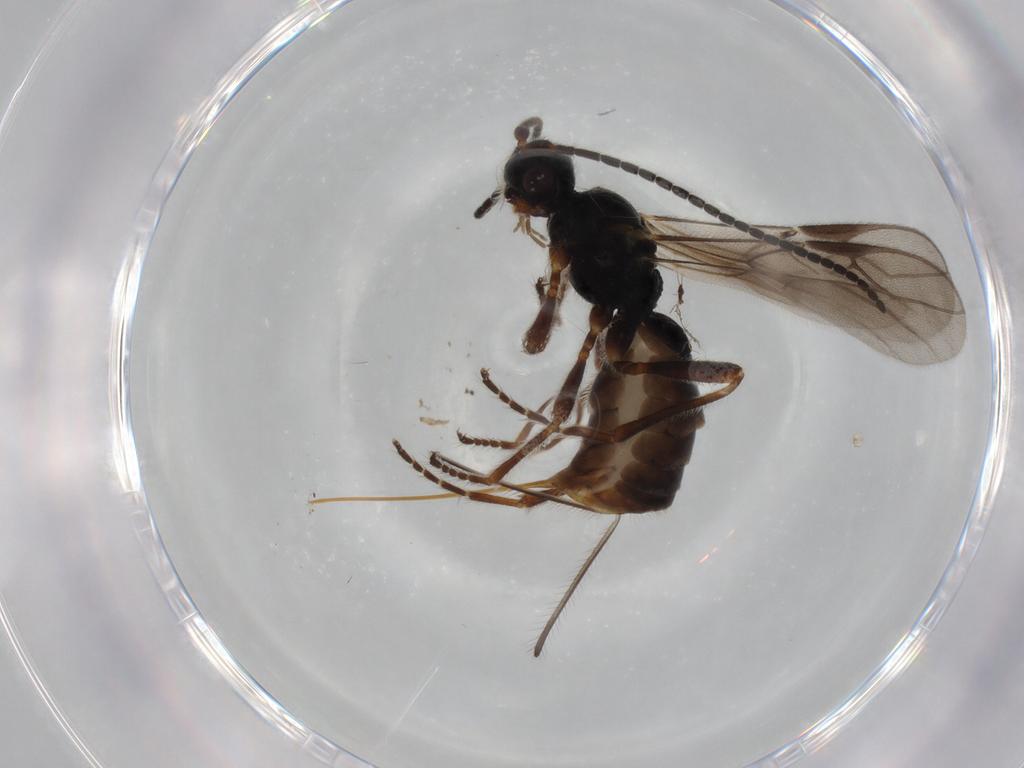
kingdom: Animalia
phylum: Arthropoda
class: Insecta
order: Hymenoptera
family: Braconidae
